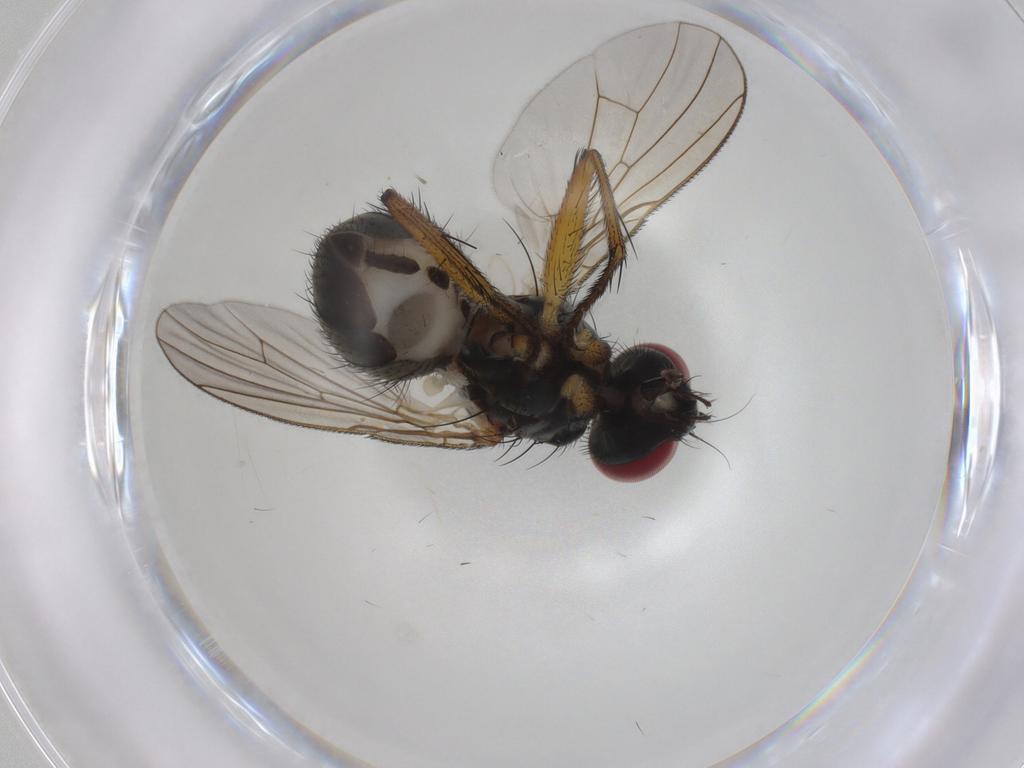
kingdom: Animalia
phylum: Arthropoda
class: Insecta
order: Diptera
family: Muscidae
